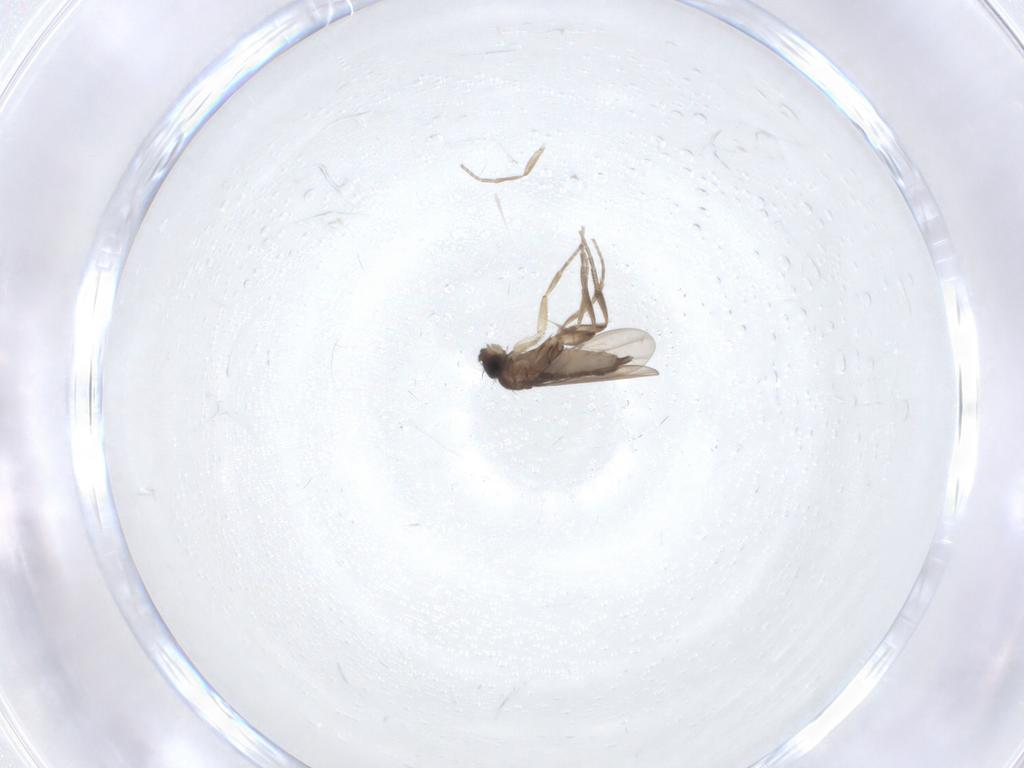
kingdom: Animalia
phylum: Arthropoda
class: Insecta
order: Diptera
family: Phoridae
